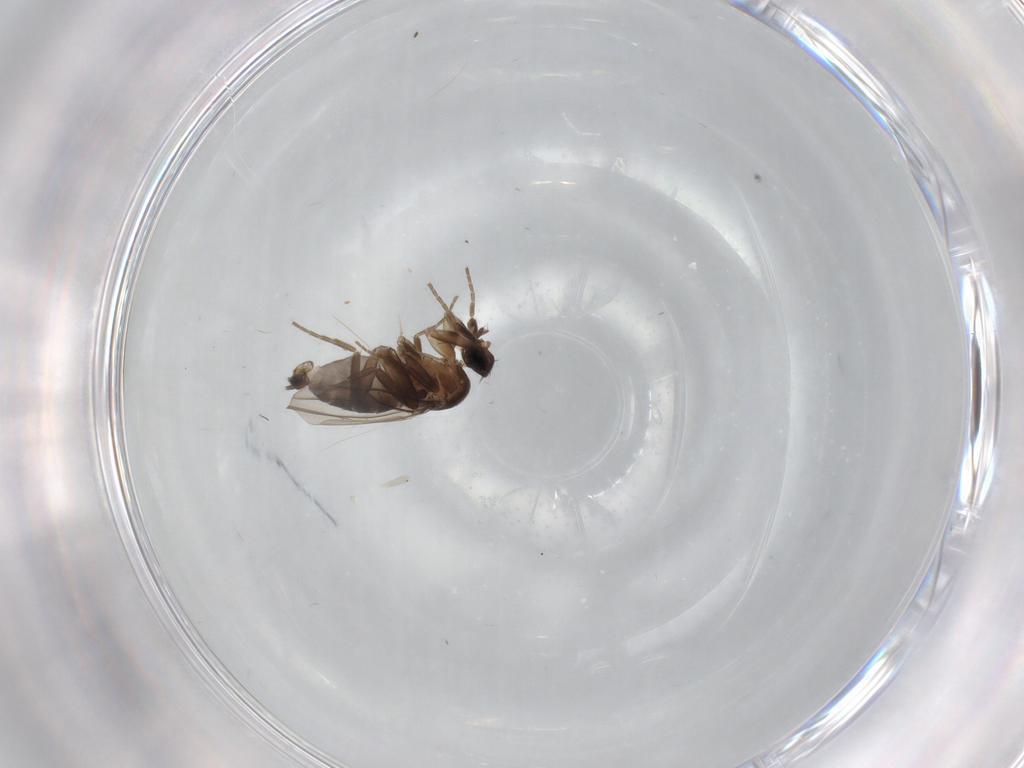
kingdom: Animalia
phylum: Arthropoda
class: Insecta
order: Diptera
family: Phoridae
